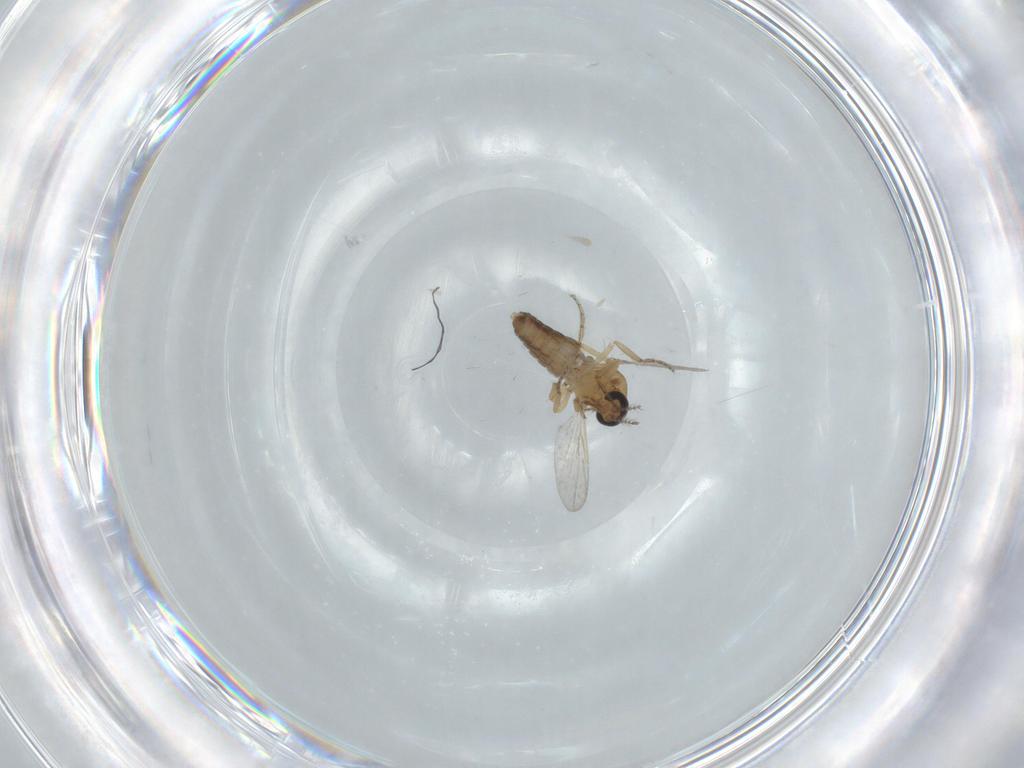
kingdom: Animalia
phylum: Arthropoda
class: Insecta
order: Diptera
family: Ceratopogonidae
